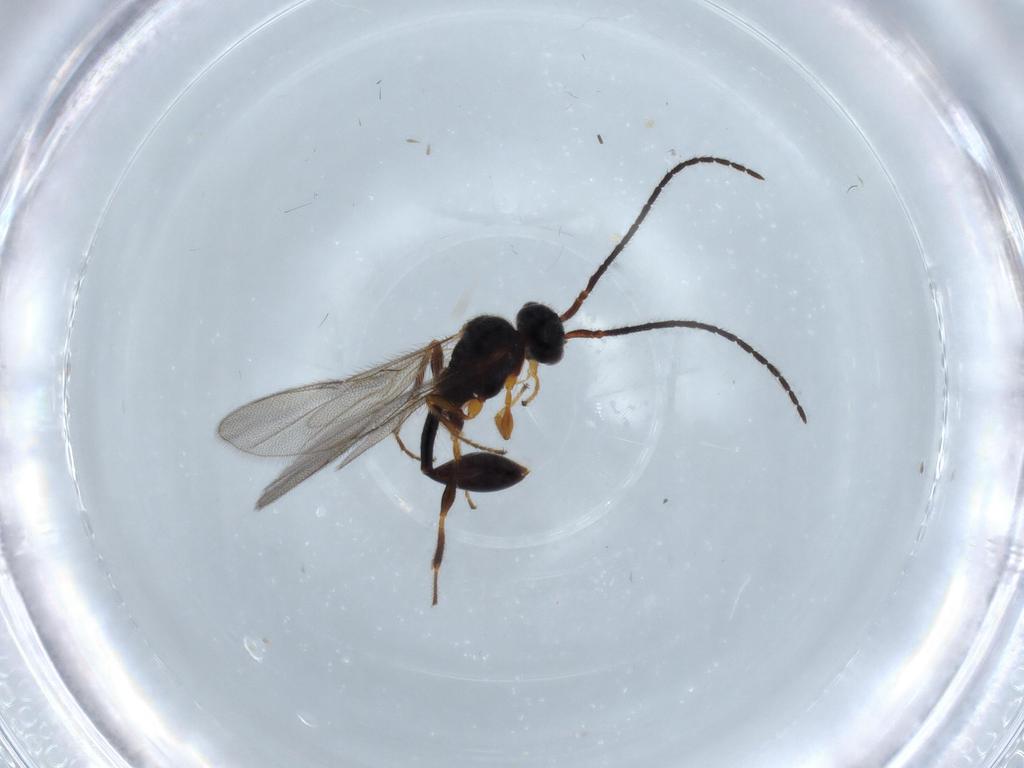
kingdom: Animalia
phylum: Arthropoda
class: Insecta
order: Hymenoptera
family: Diapriidae
